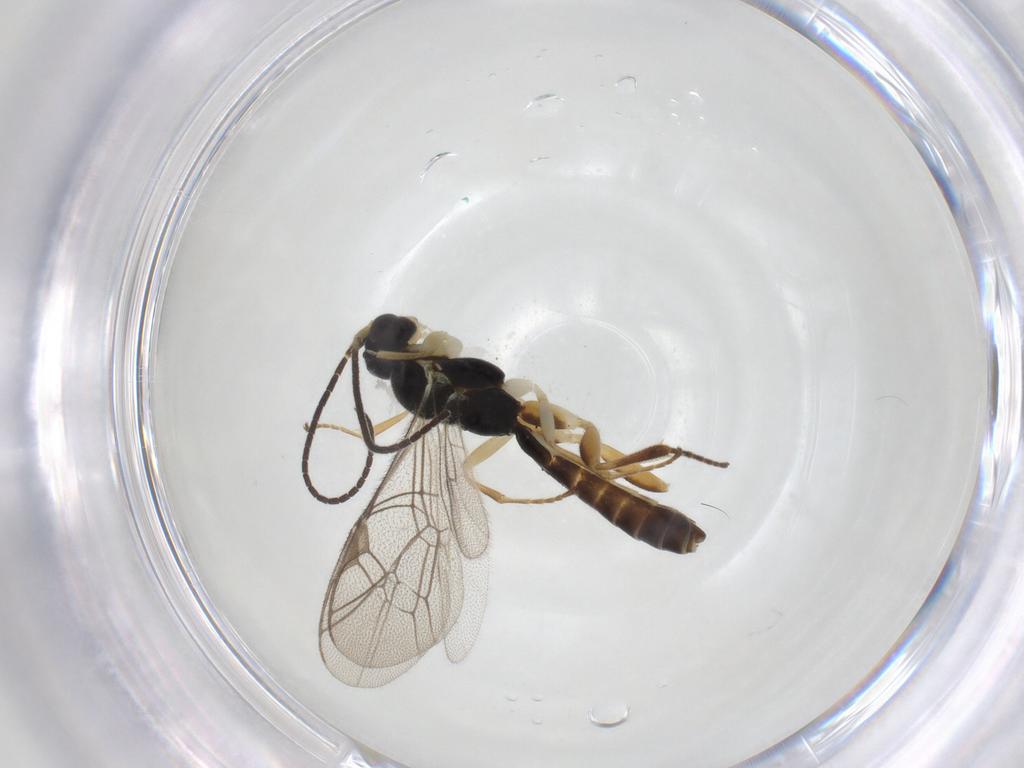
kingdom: Animalia
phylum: Arthropoda
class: Insecta
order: Hymenoptera
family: Ichneumonidae
